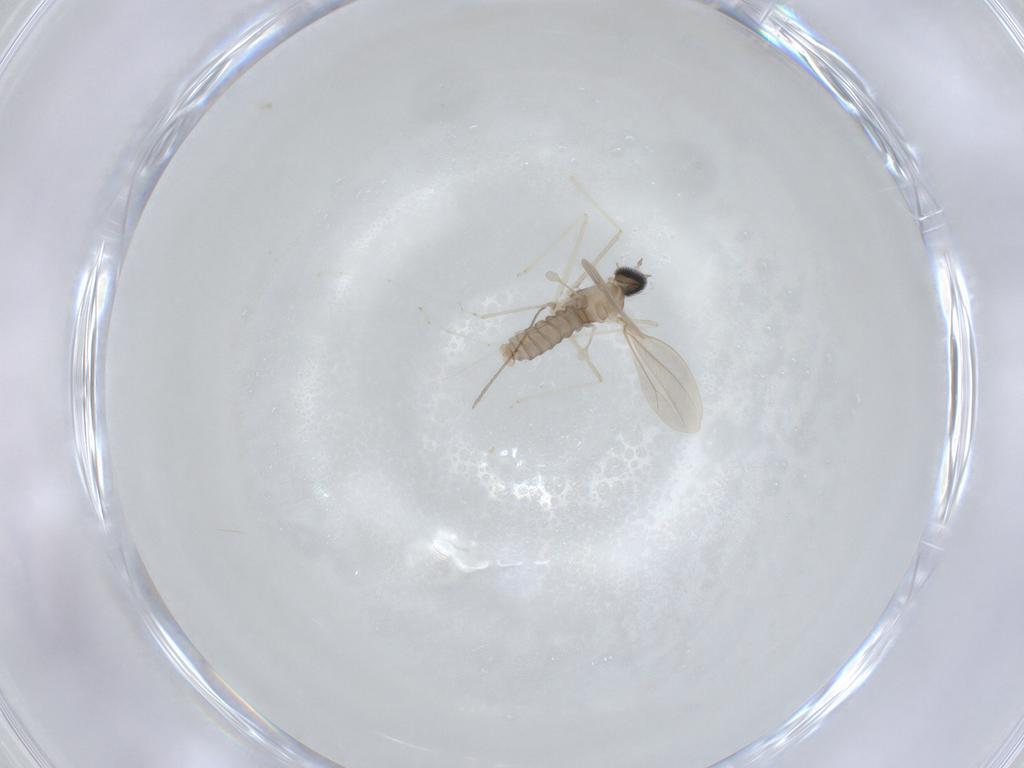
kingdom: Animalia
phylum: Arthropoda
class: Insecta
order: Diptera
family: Cecidomyiidae
